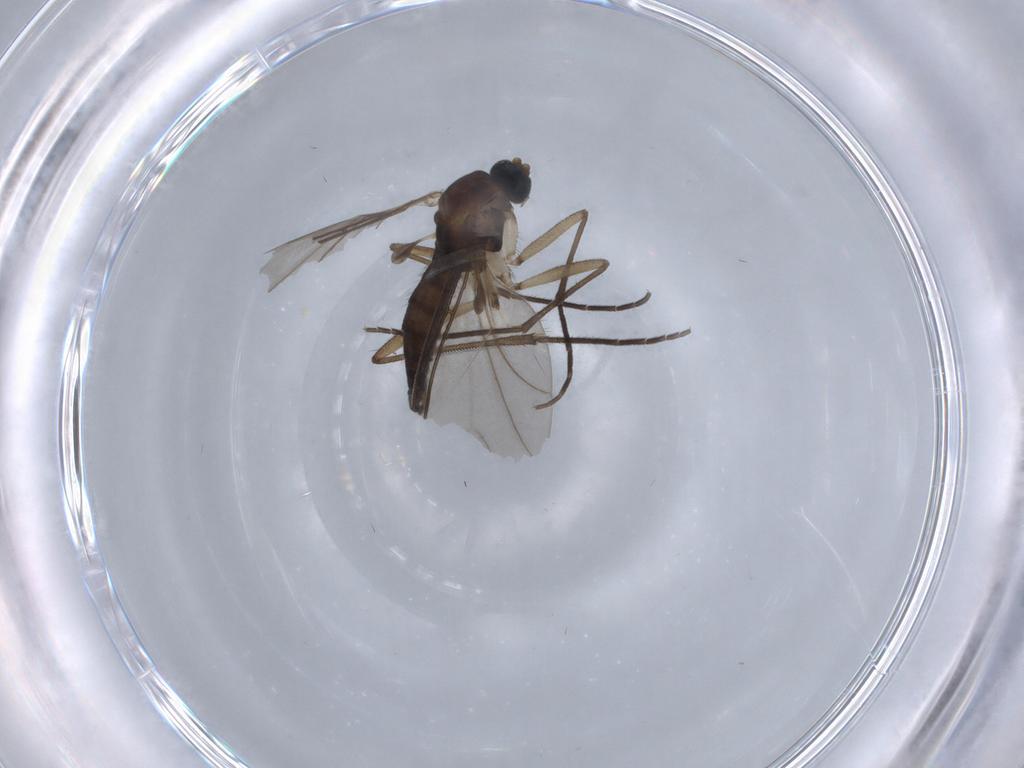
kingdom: Animalia
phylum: Arthropoda
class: Insecta
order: Diptera
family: Sciaridae
